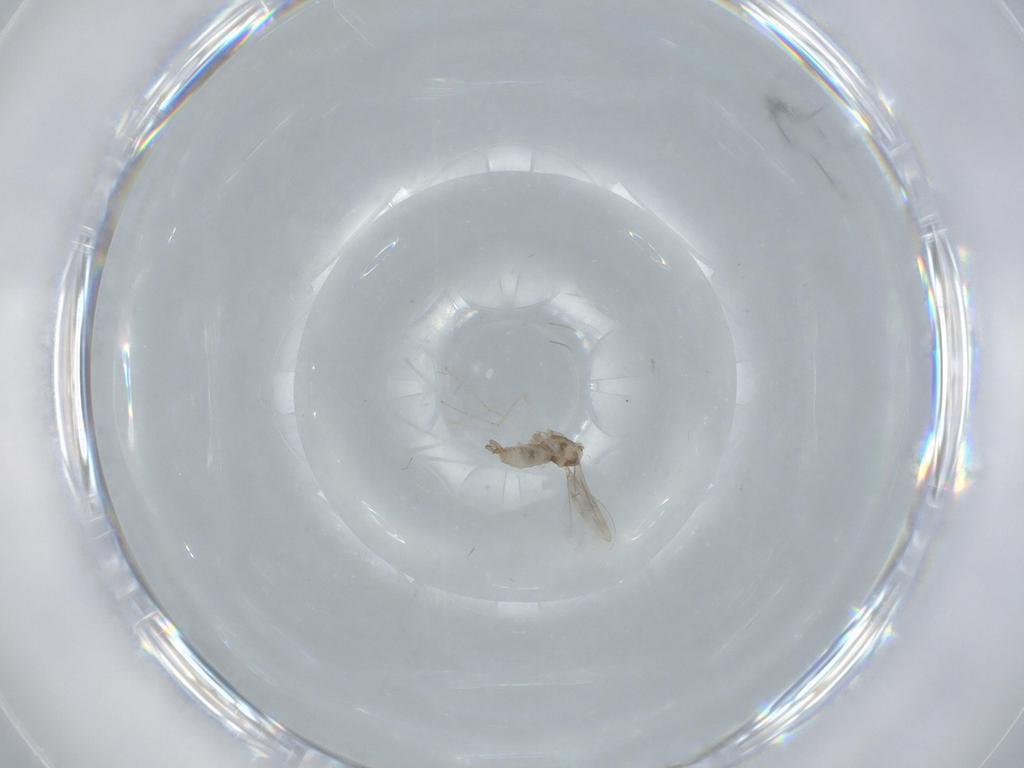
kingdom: Animalia
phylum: Arthropoda
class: Insecta
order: Diptera
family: Cecidomyiidae
